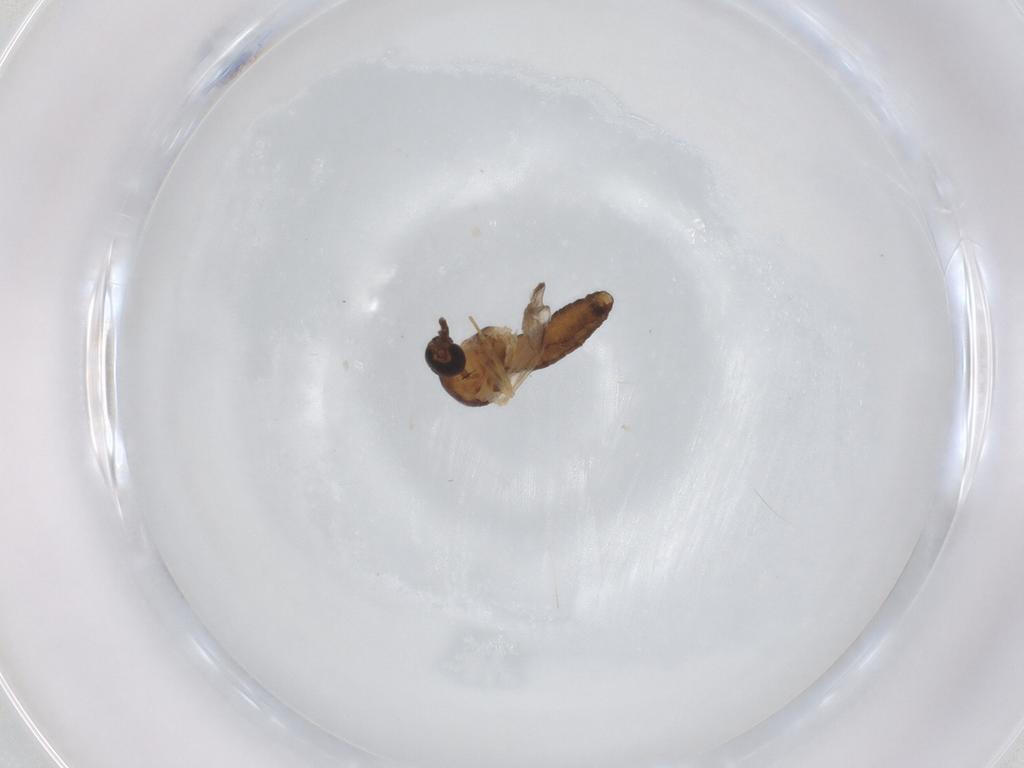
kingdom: Animalia
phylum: Arthropoda
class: Insecta
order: Diptera
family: Ceratopogonidae
